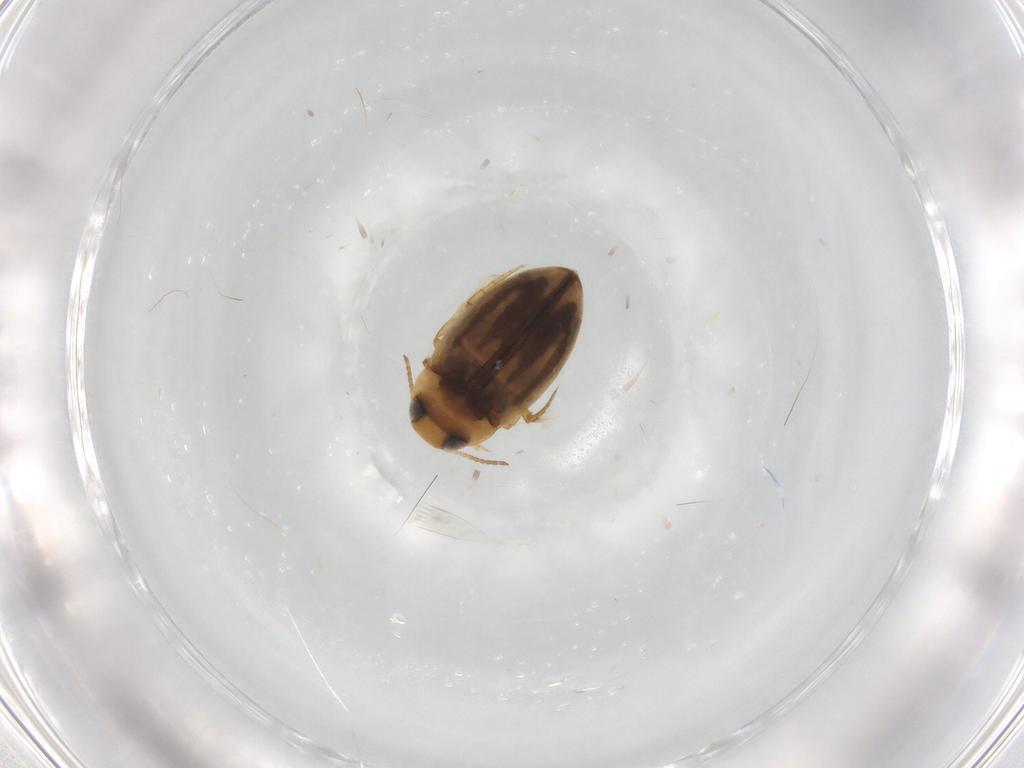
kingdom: Animalia
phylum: Arthropoda
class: Insecta
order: Coleoptera
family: Dytiscidae
